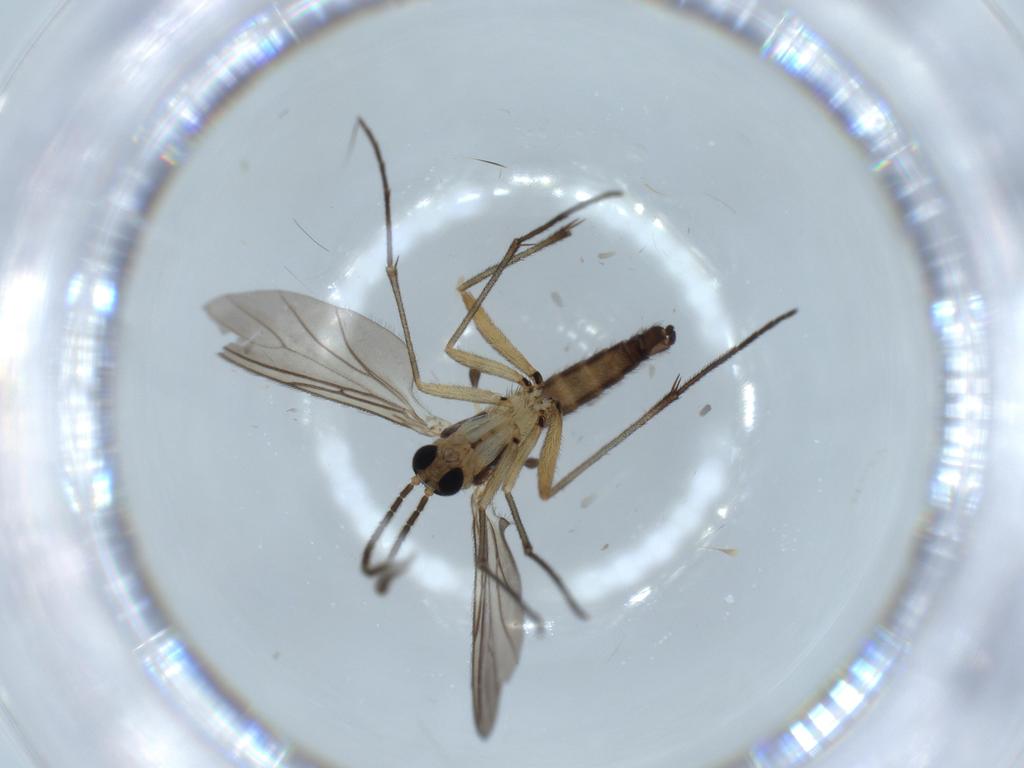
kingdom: Animalia
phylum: Arthropoda
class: Insecta
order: Diptera
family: Sciaridae
